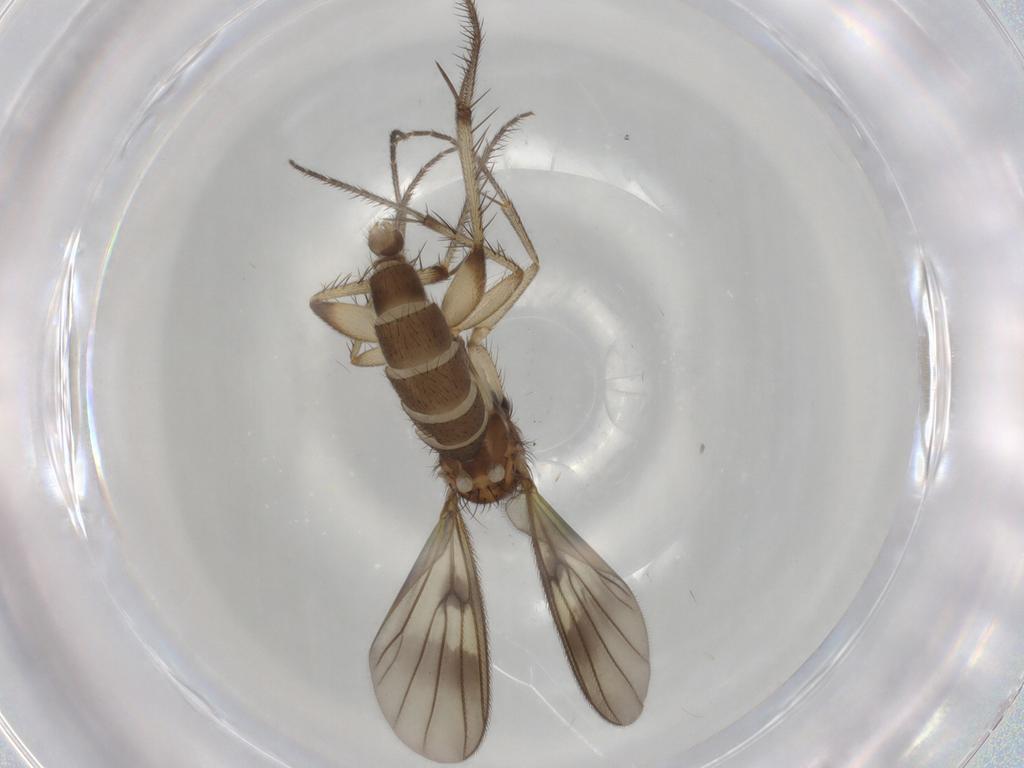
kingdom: Animalia
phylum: Arthropoda
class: Insecta
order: Diptera
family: Mycetophilidae
